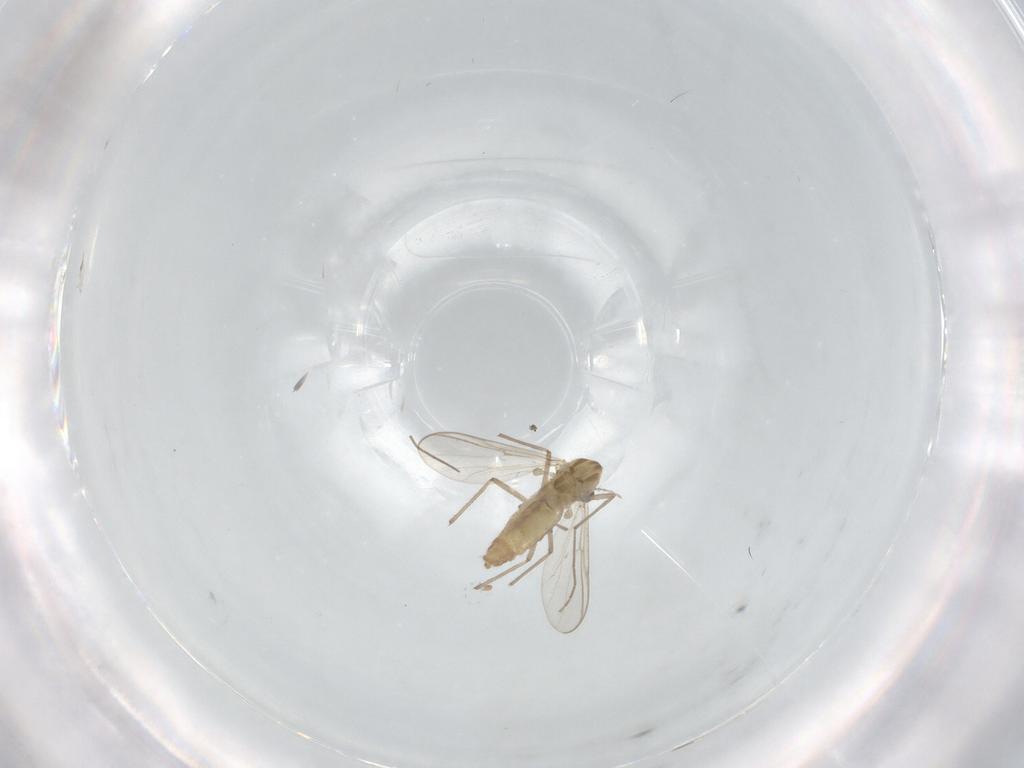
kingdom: Animalia
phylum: Arthropoda
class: Insecta
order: Diptera
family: Chironomidae
